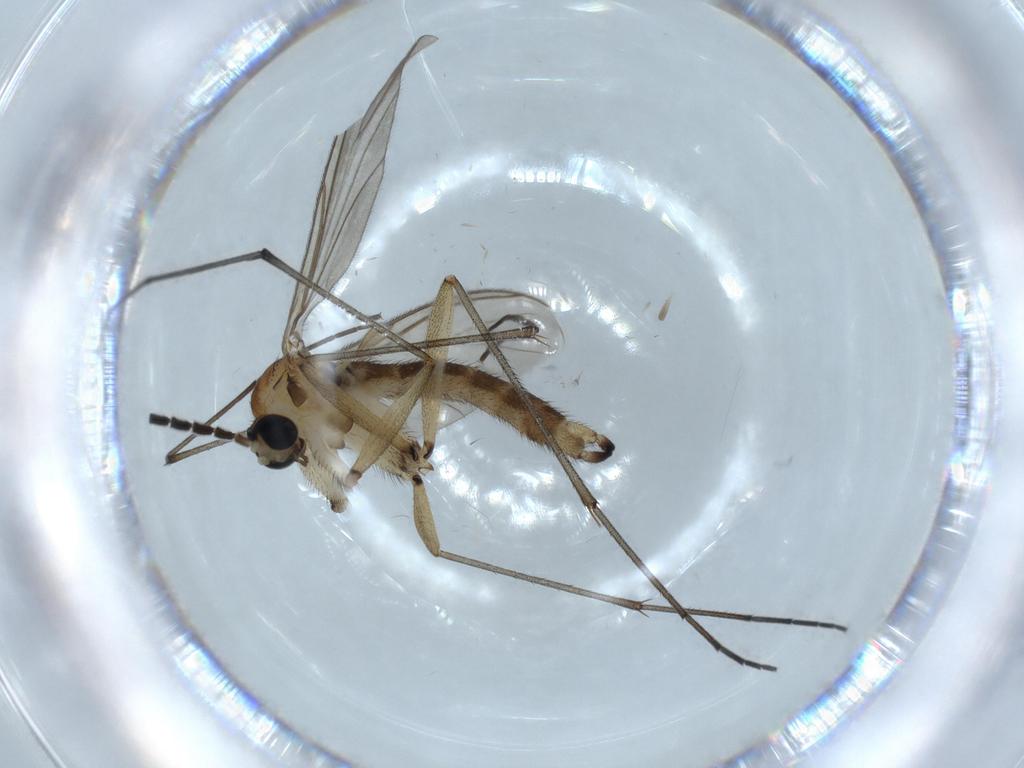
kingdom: Animalia
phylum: Arthropoda
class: Insecta
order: Diptera
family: Sciaridae
